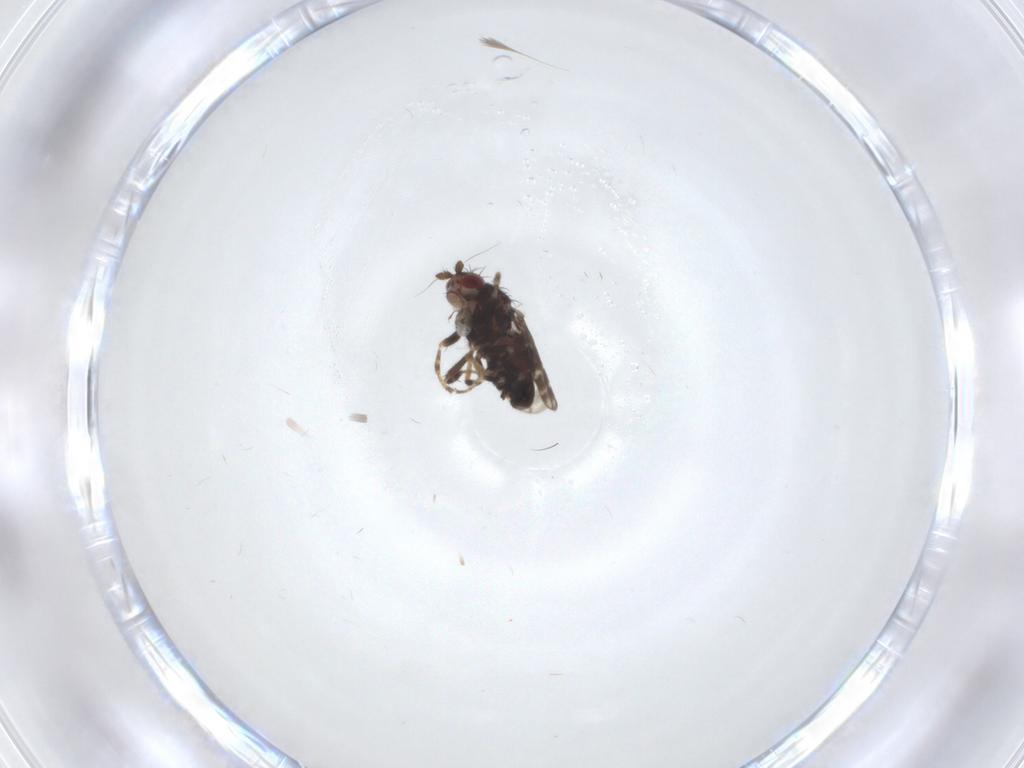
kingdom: Animalia
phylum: Arthropoda
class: Insecta
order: Diptera
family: Sphaeroceridae
